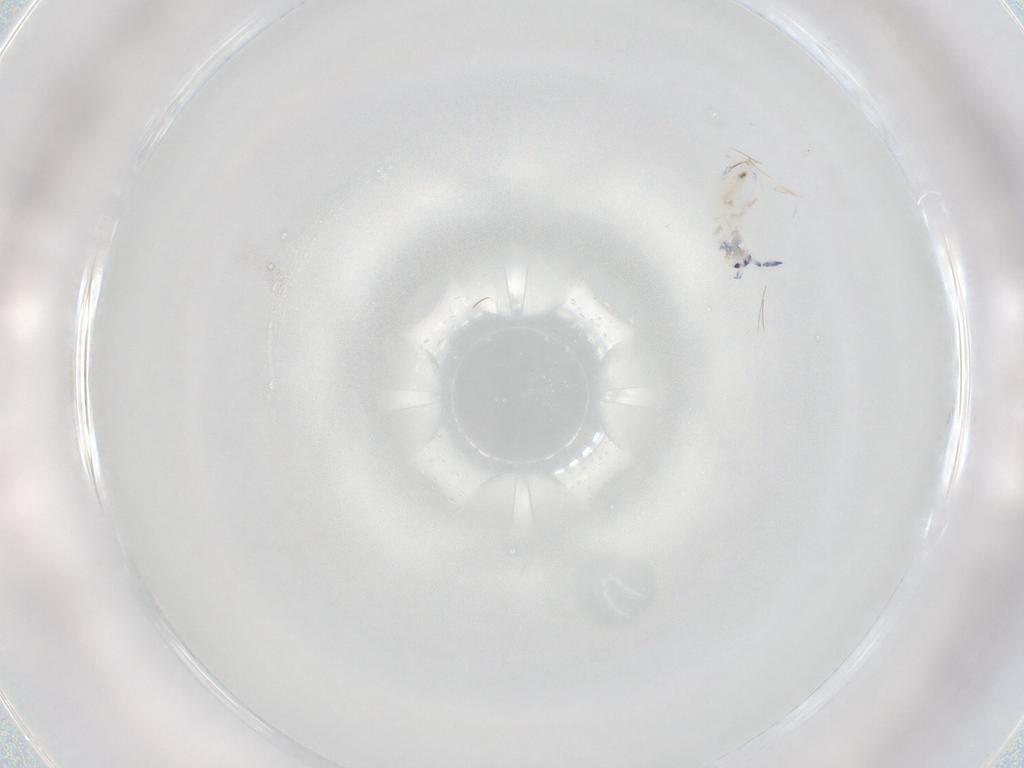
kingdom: Animalia
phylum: Arthropoda
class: Collembola
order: Entomobryomorpha
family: Entomobryidae
